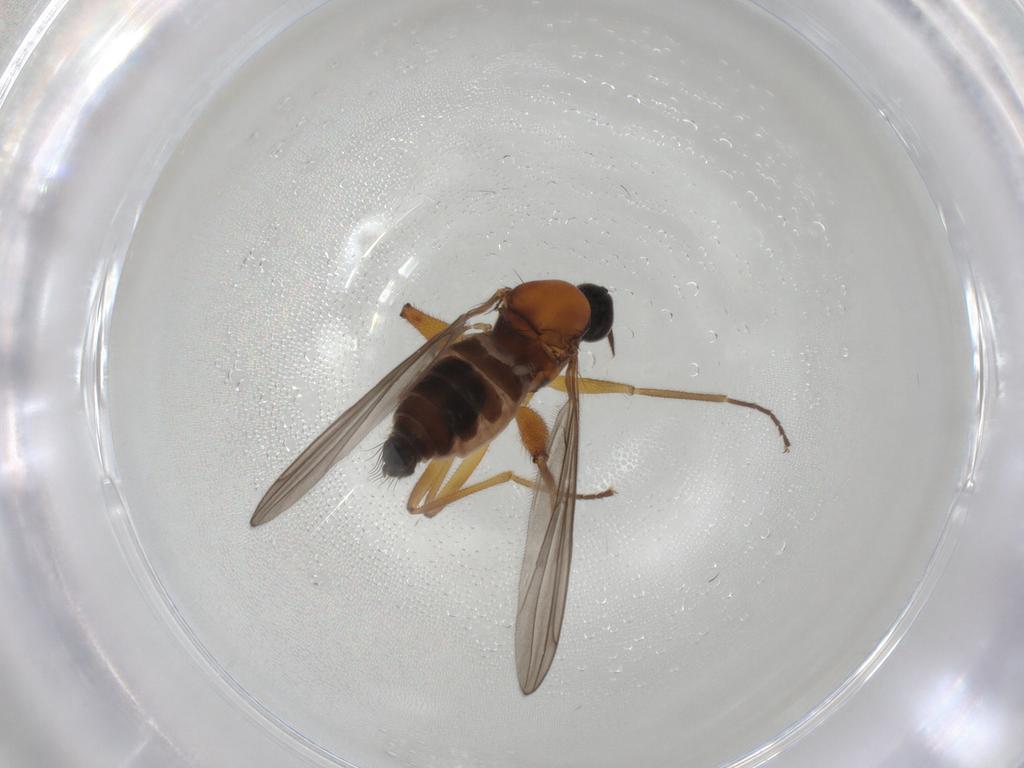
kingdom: Animalia
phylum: Arthropoda
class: Insecta
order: Diptera
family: Hybotidae
